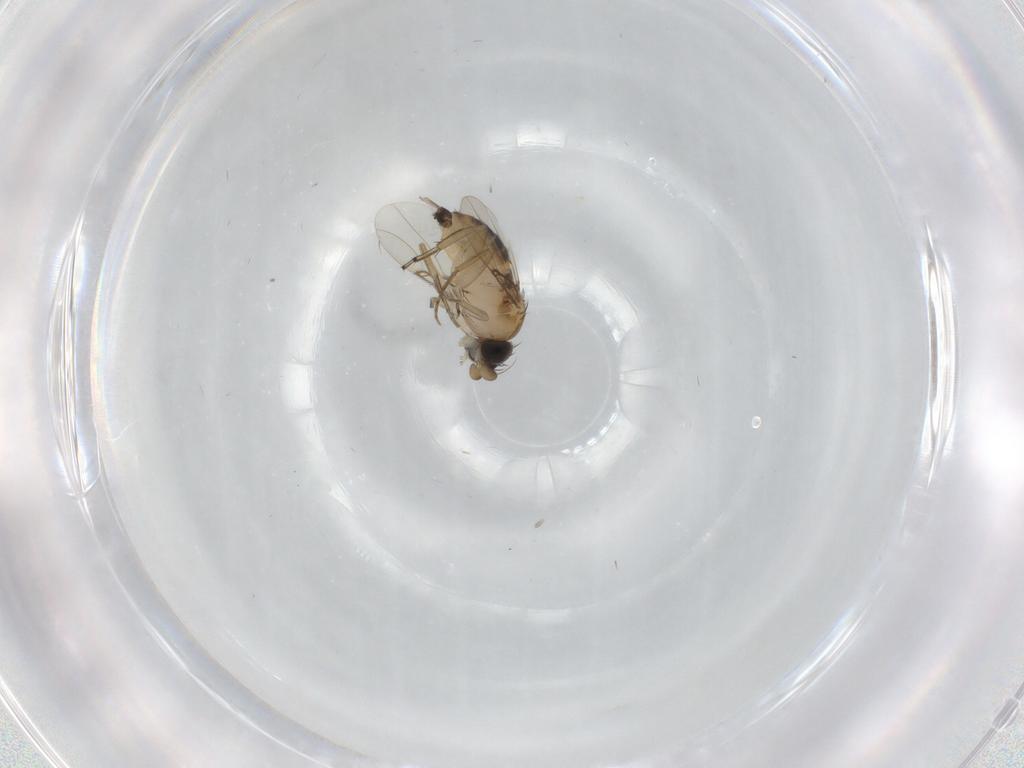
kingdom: Animalia
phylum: Arthropoda
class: Insecta
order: Diptera
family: Phoridae
